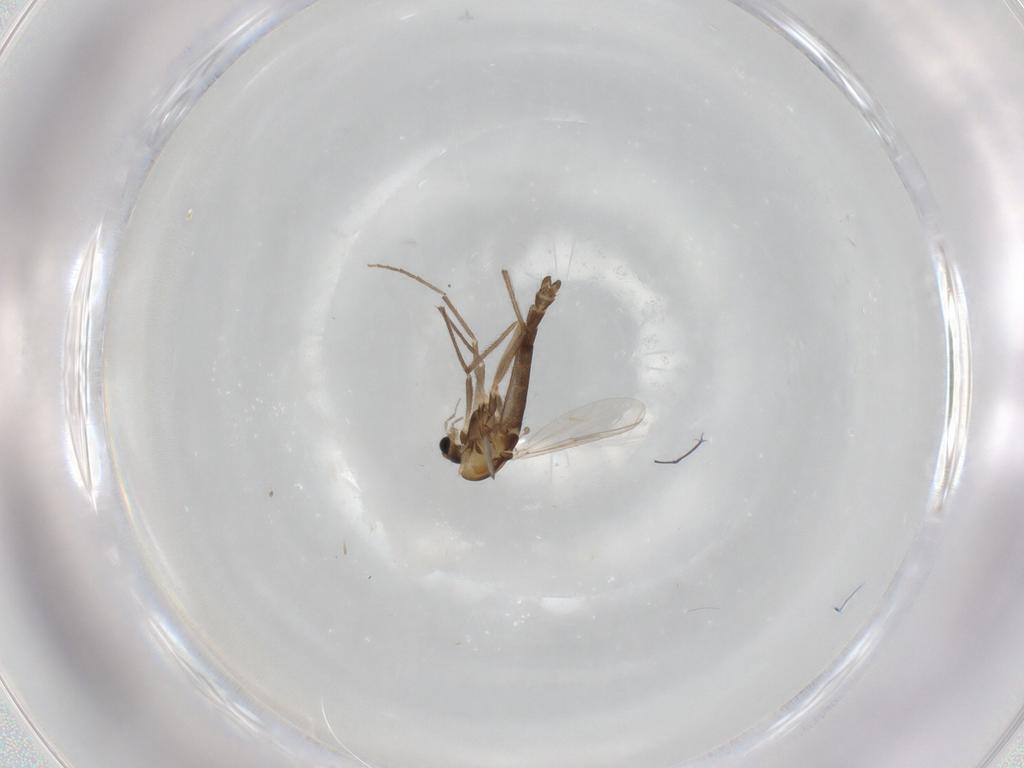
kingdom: Animalia
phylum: Arthropoda
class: Insecta
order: Diptera
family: Chironomidae
